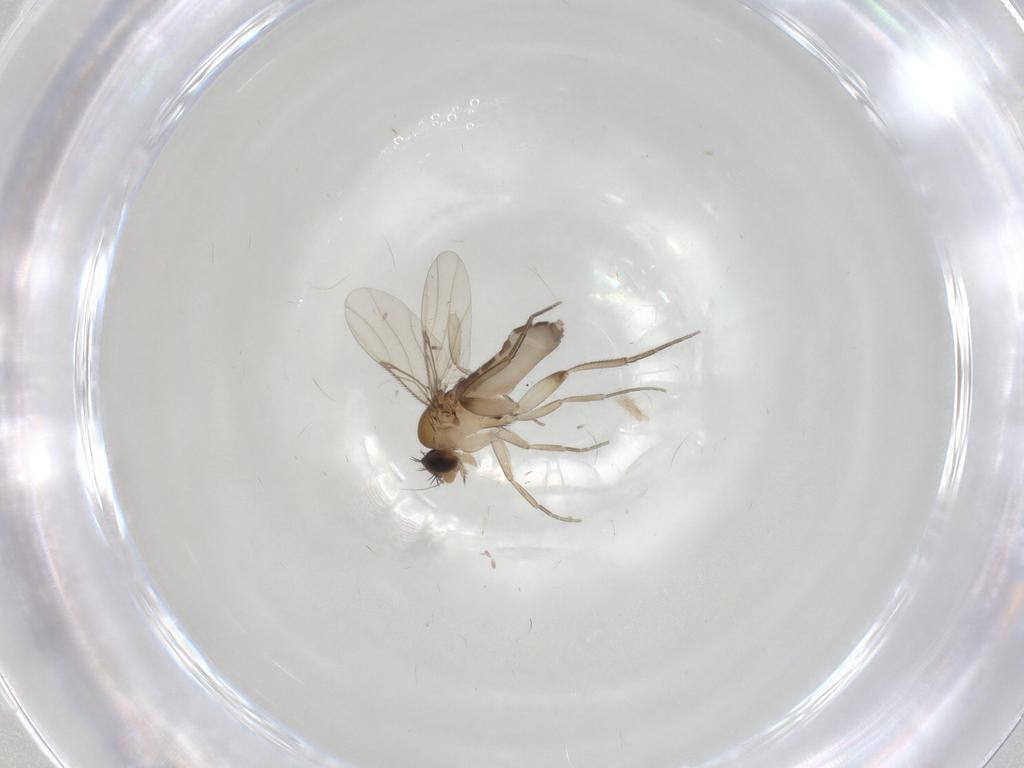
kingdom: Animalia
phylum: Arthropoda
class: Insecta
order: Diptera
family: Phoridae
